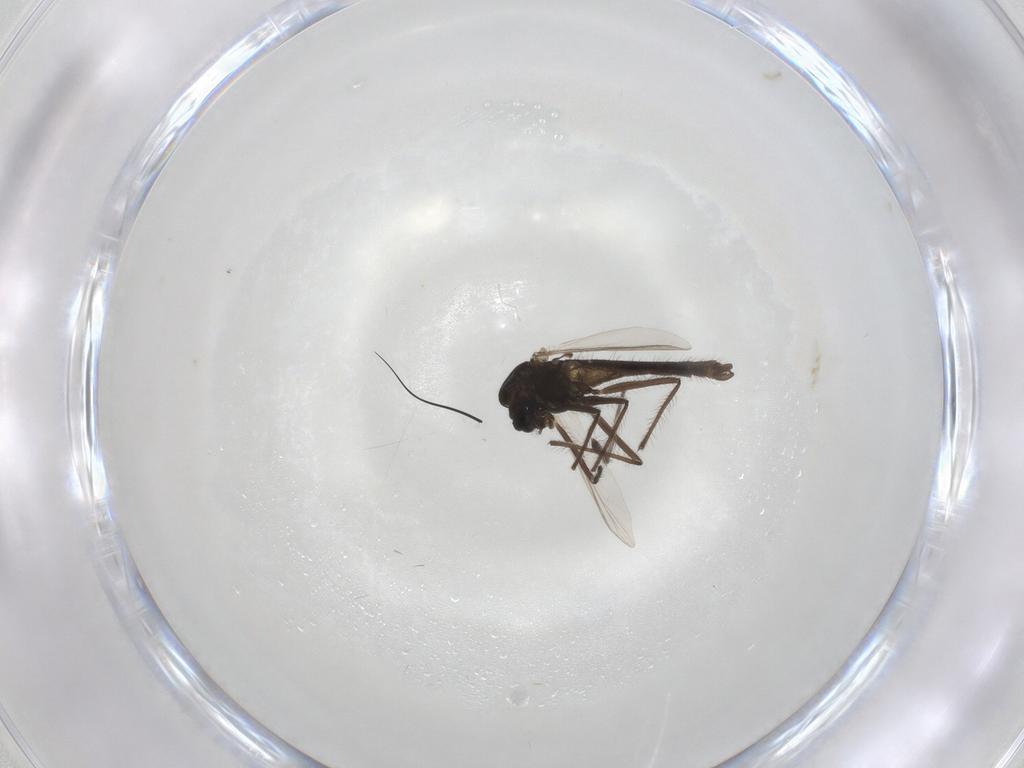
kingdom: Animalia
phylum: Arthropoda
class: Insecta
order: Diptera
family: Chironomidae
